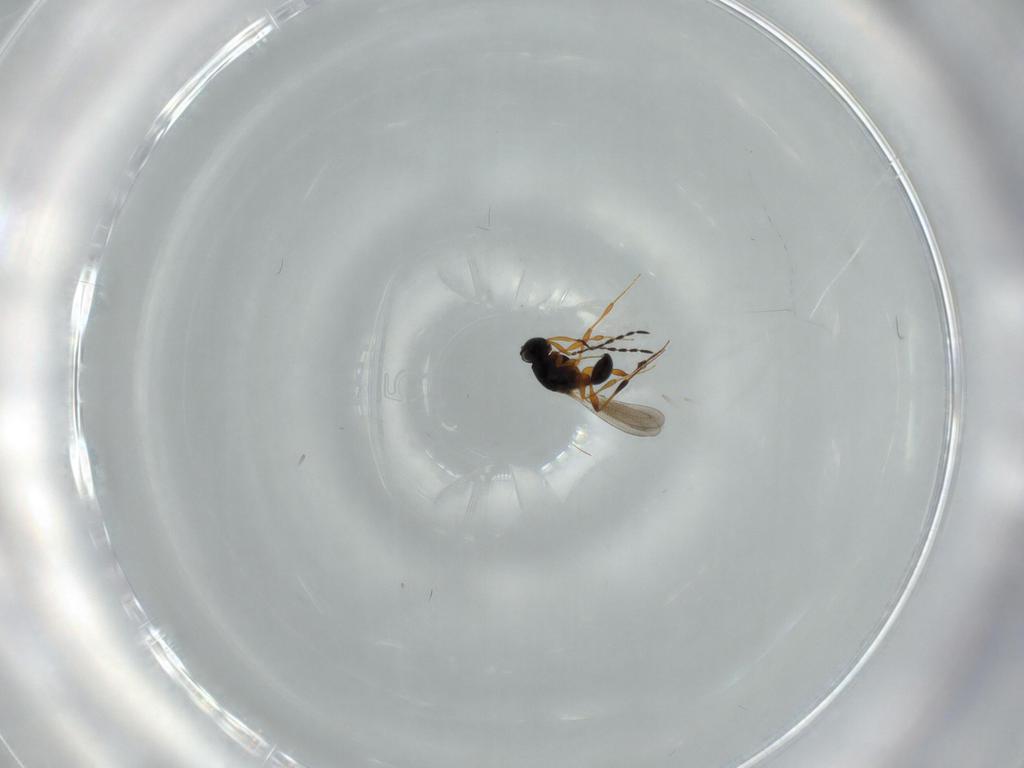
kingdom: Animalia
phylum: Arthropoda
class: Insecta
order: Hymenoptera
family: Platygastridae
